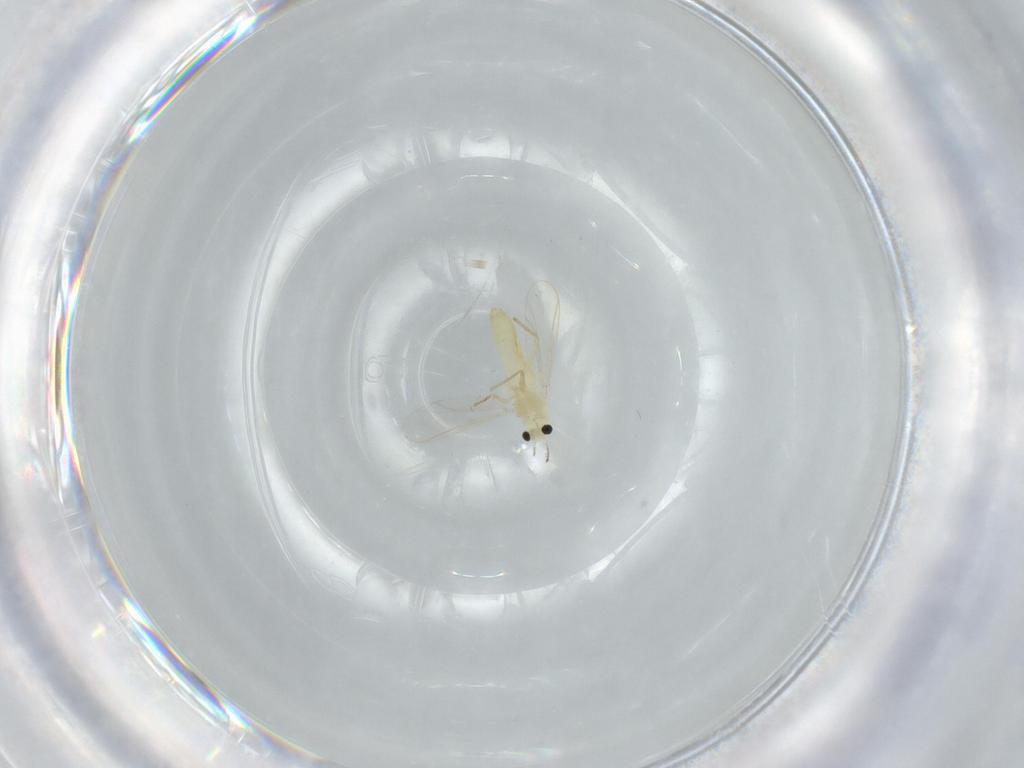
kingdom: Animalia
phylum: Arthropoda
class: Insecta
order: Diptera
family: Chironomidae
